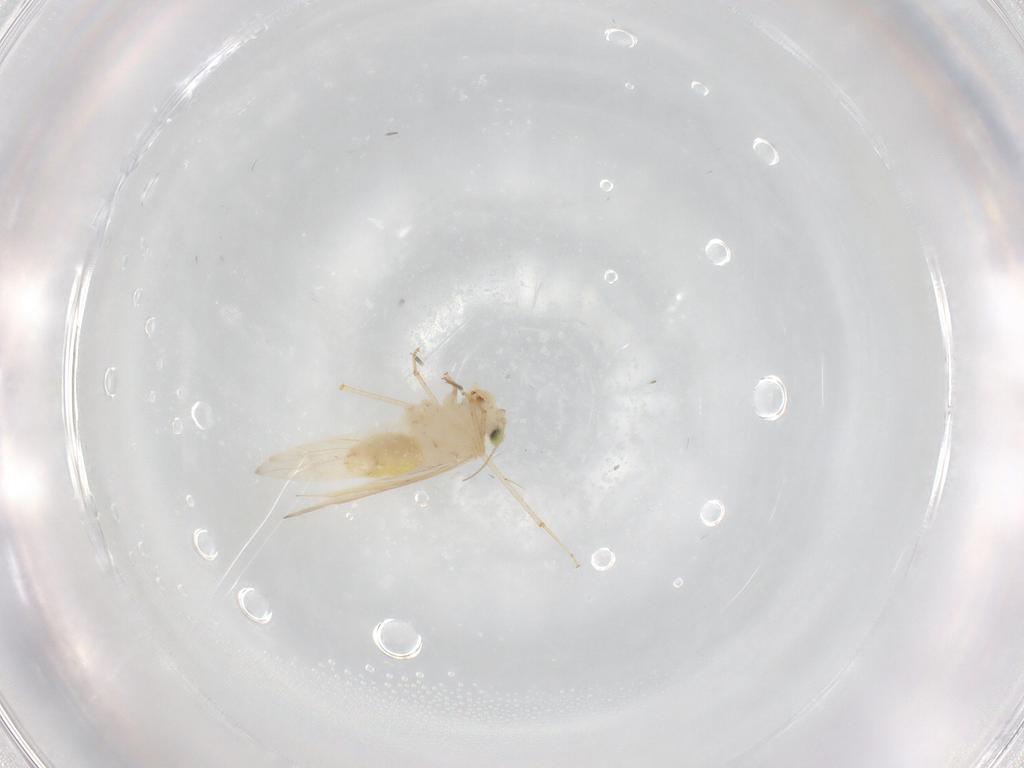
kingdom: Animalia
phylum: Arthropoda
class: Insecta
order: Psocodea
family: Lepidopsocidae
